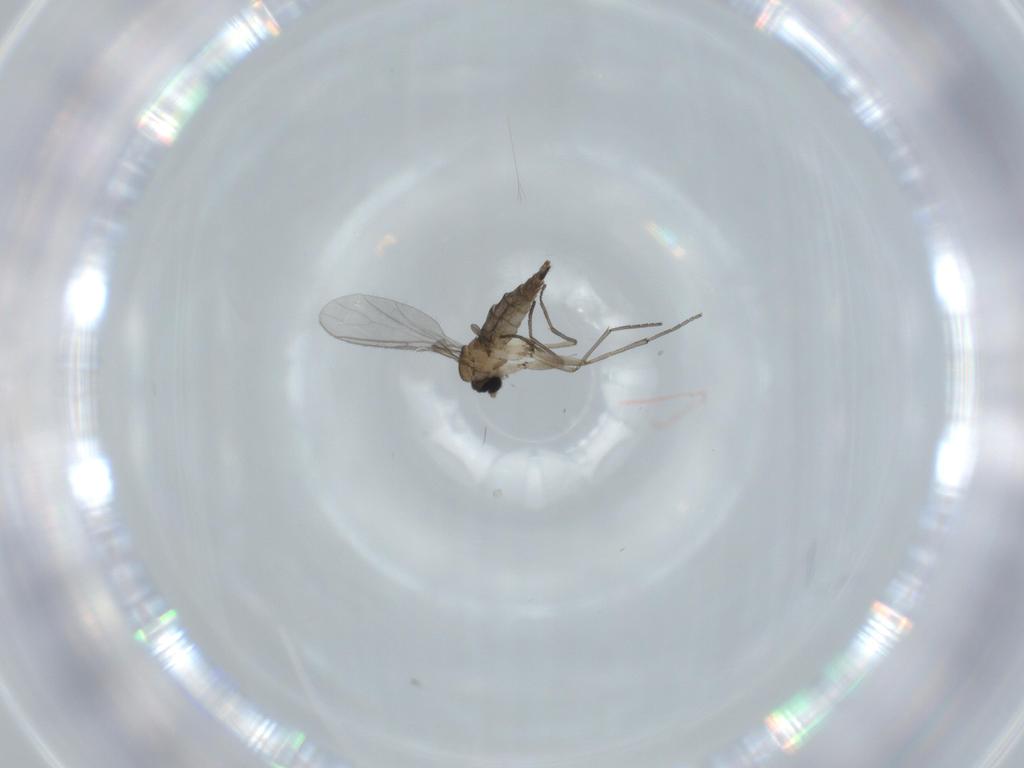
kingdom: Animalia
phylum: Arthropoda
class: Insecta
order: Diptera
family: Sciaridae
